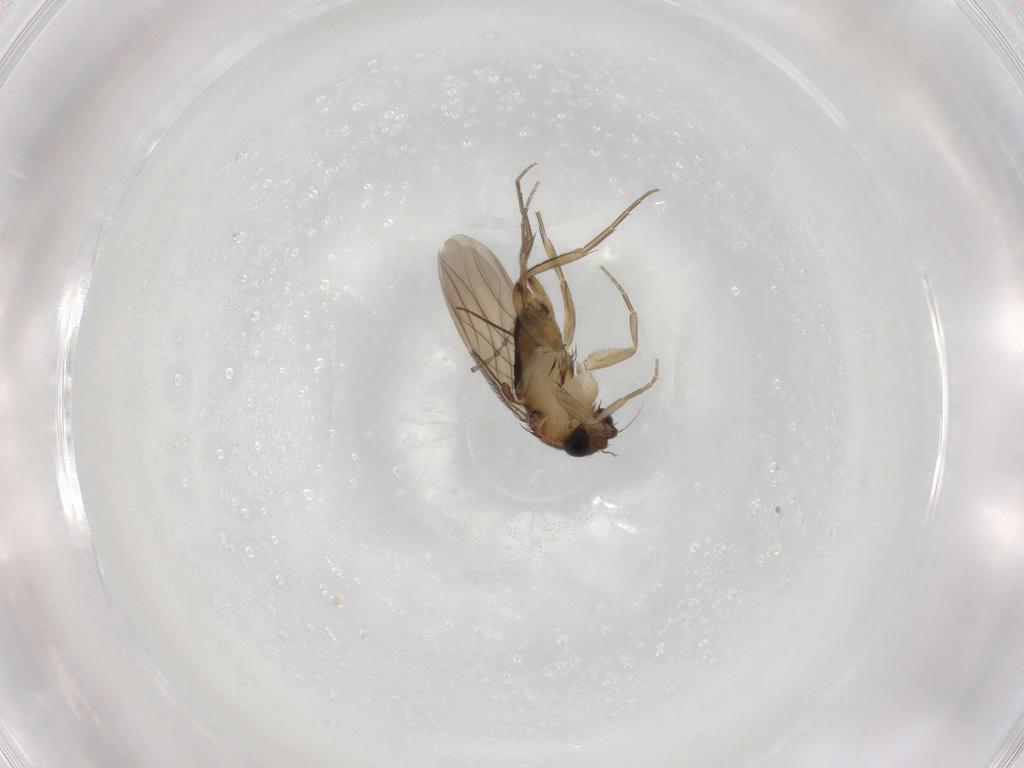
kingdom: Animalia
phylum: Arthropoda
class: Insecta
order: Diptera
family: Phoridae
